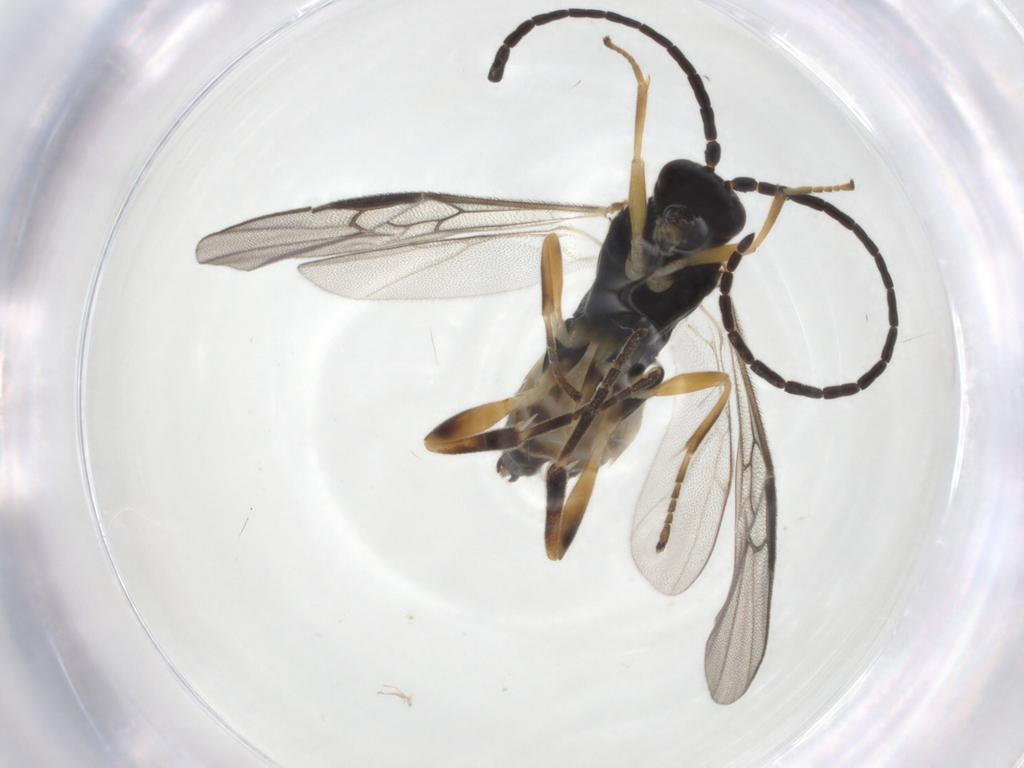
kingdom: Animalia
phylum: Arthropoda
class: Insecta
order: Hymenoptera
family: Braconidae
